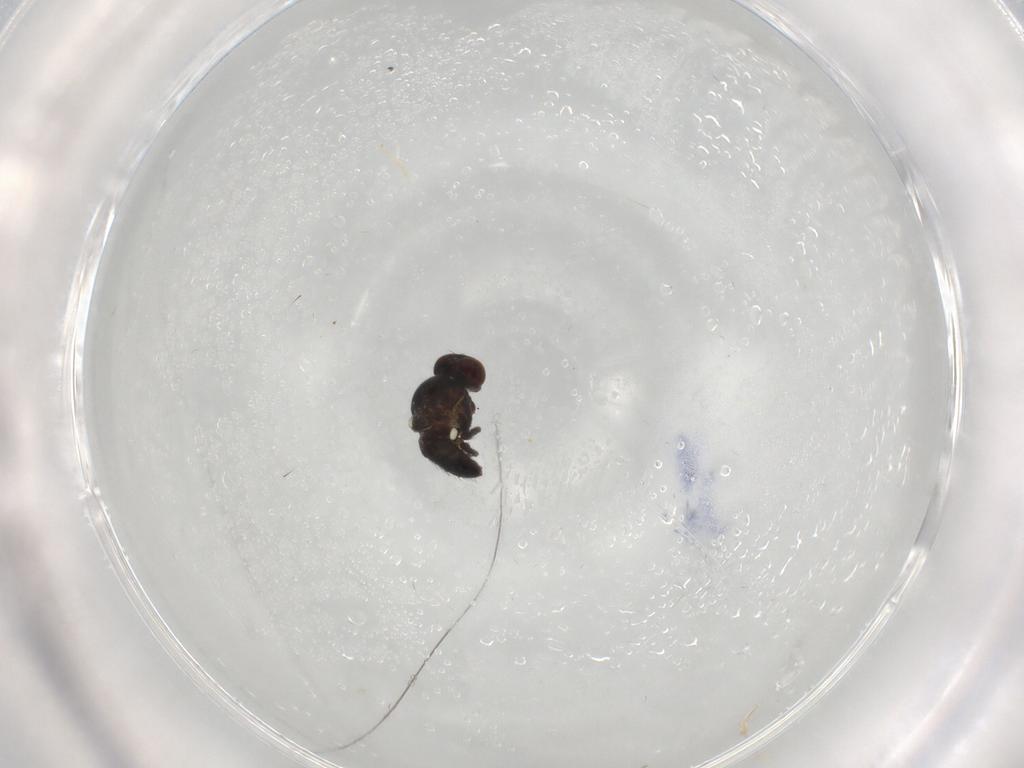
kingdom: Animalia
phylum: Arthropoda
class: Insecta
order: Diptera
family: Agromyzidae
